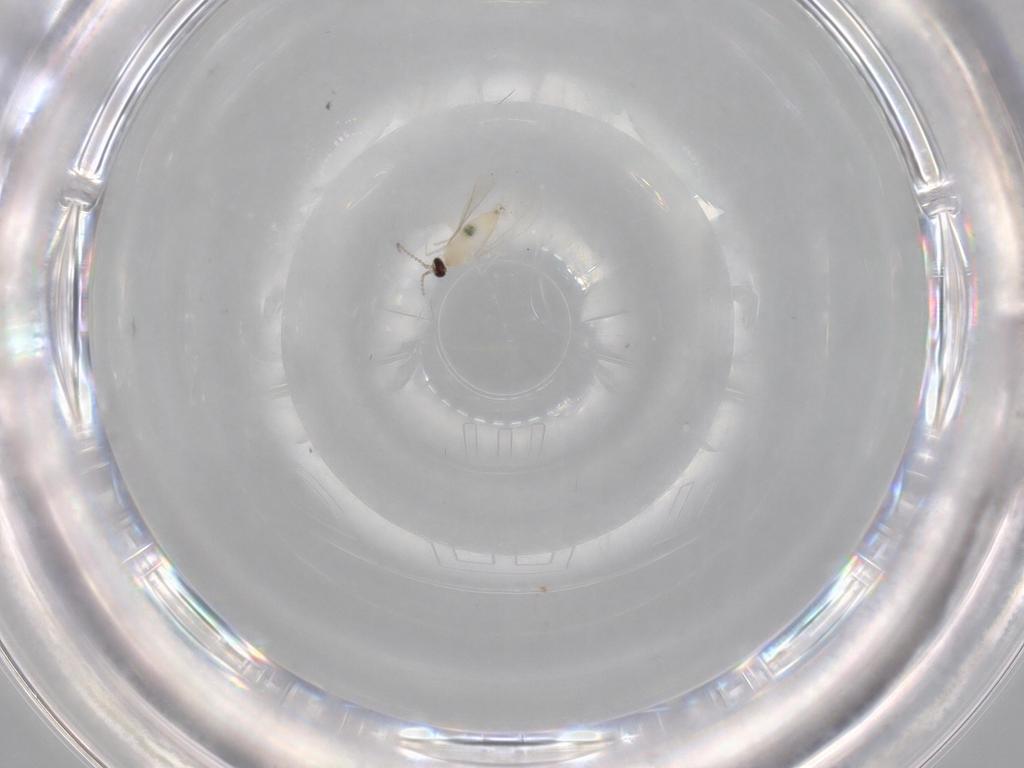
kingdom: Animalia
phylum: Arthropoda
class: Insecta
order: Diptera
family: Cecidomyiidae
